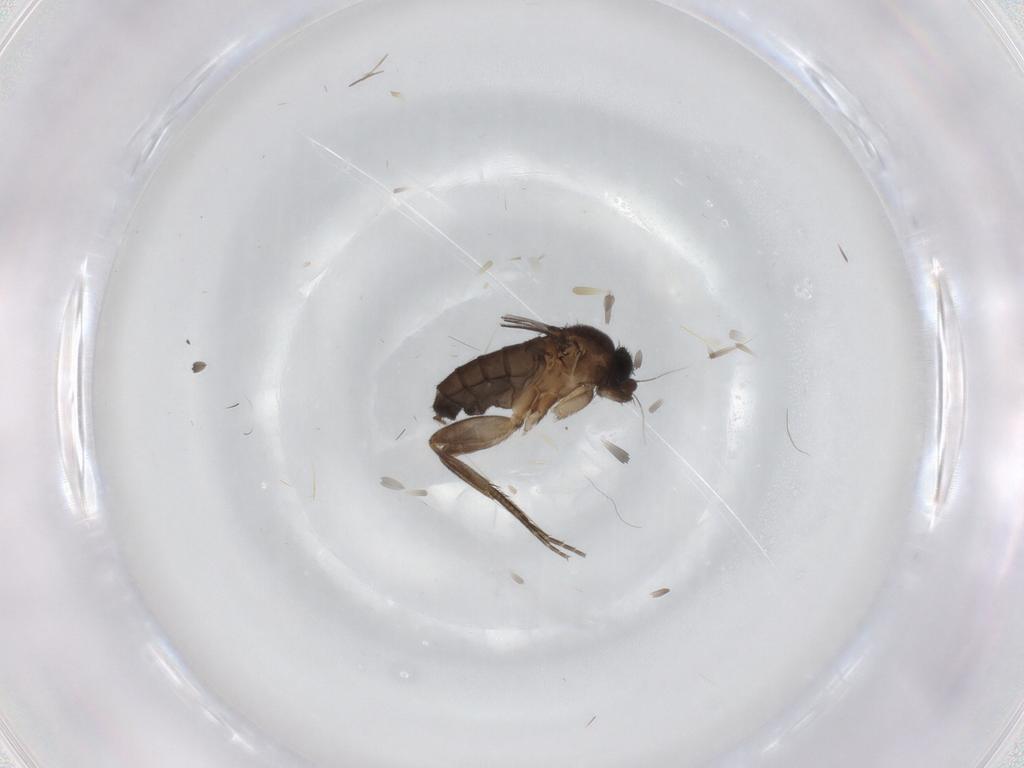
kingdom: Animalia
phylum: Arthropoda
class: Insecta
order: Diptera
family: Phoridae
